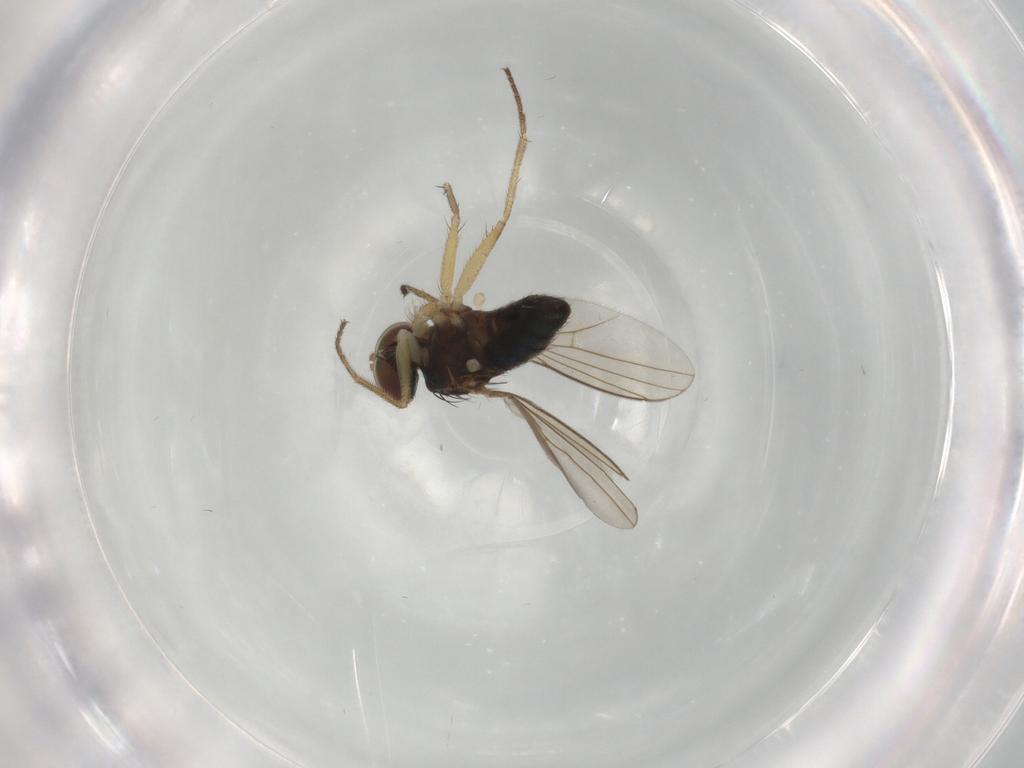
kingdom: Animalia
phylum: Arthropoda
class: Insecta
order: Diptera
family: Dolichopodidae
